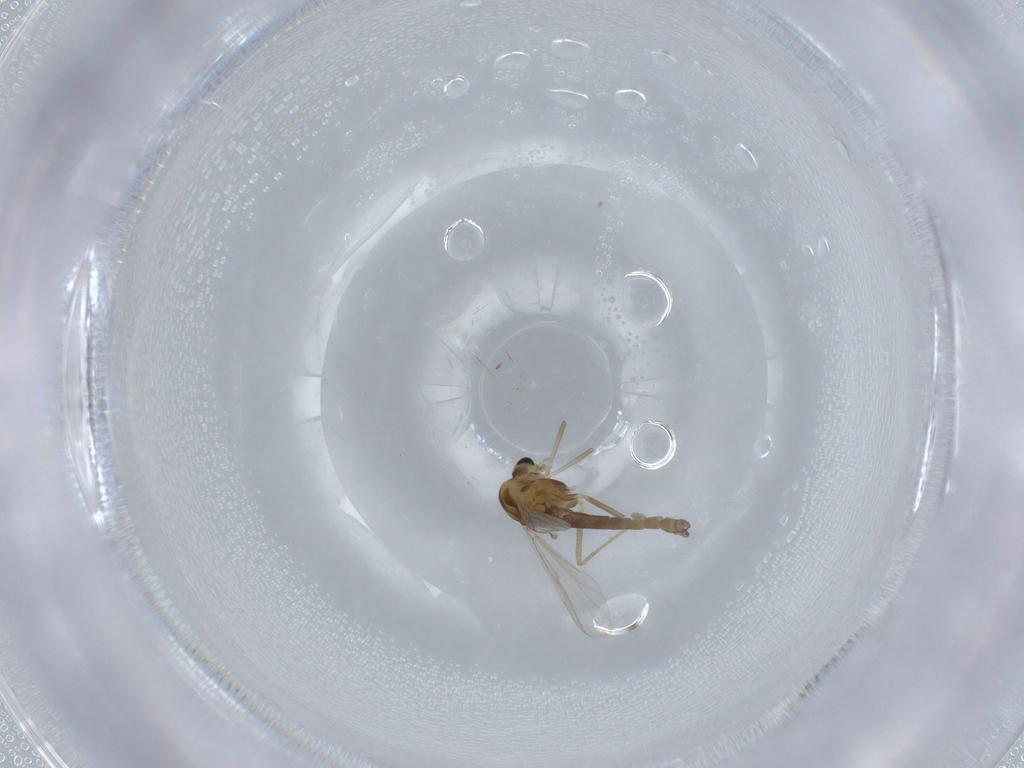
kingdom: Animalia
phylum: Arthropoda
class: Insecta
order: Diptera
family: Chironomidae
